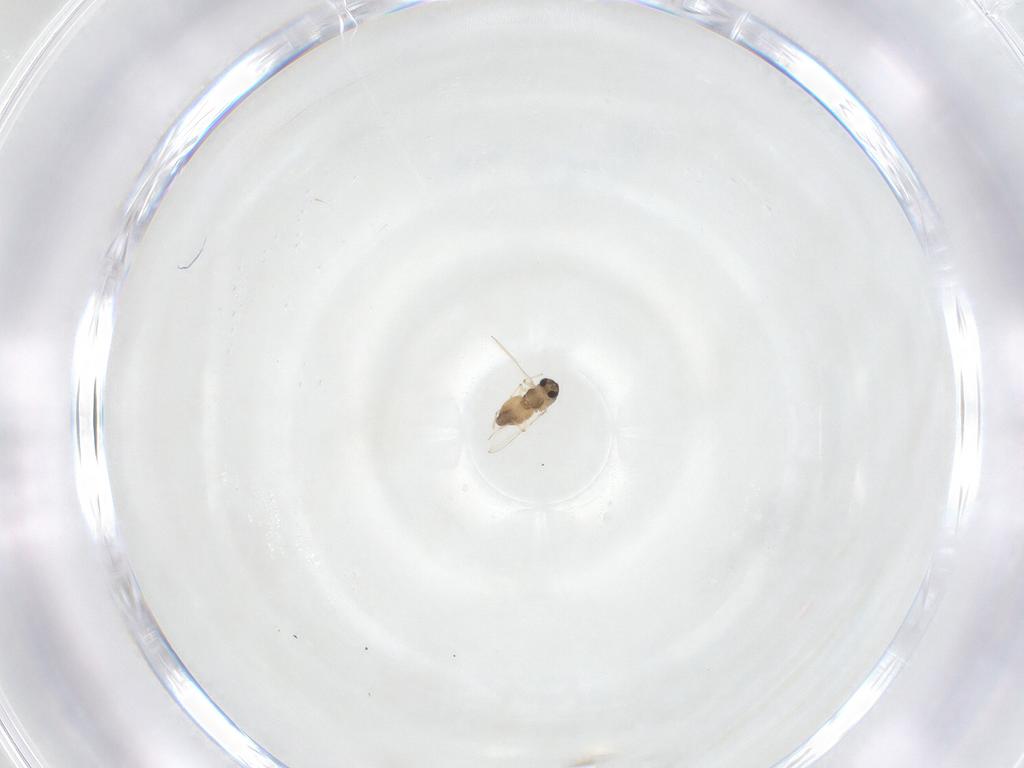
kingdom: Animalia
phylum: Arthropoda
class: Insecta
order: Diptera
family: Chironomidae
